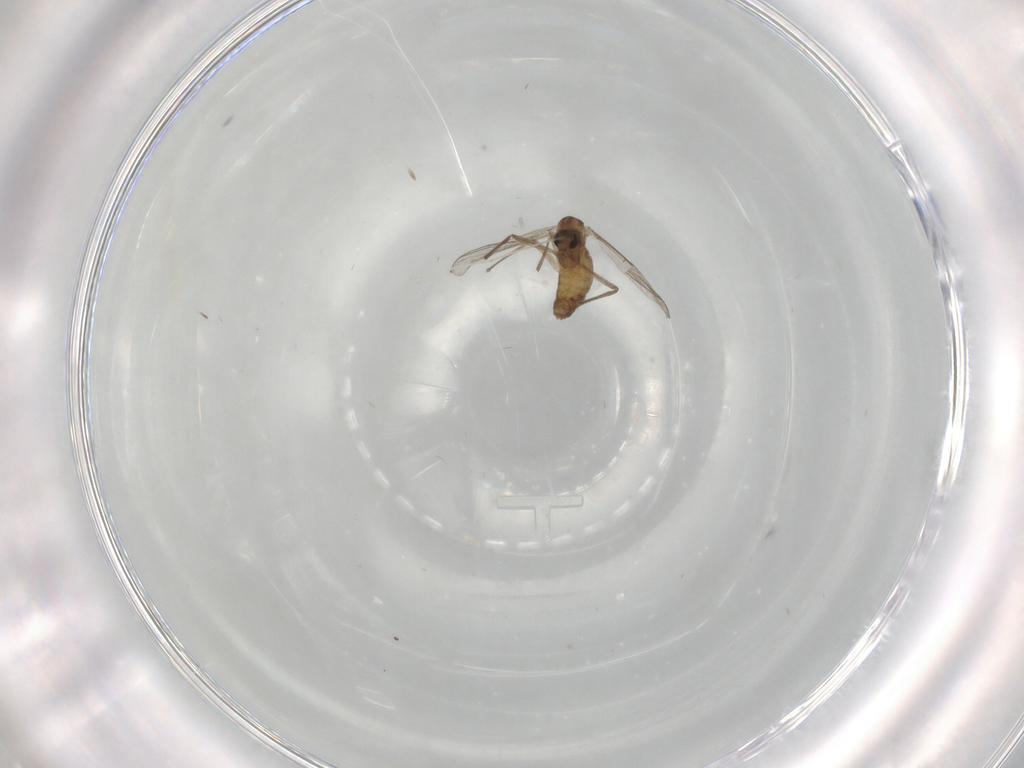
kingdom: Animalia
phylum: Arthropoda
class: Insecta
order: Diptera
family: Chironomidae
